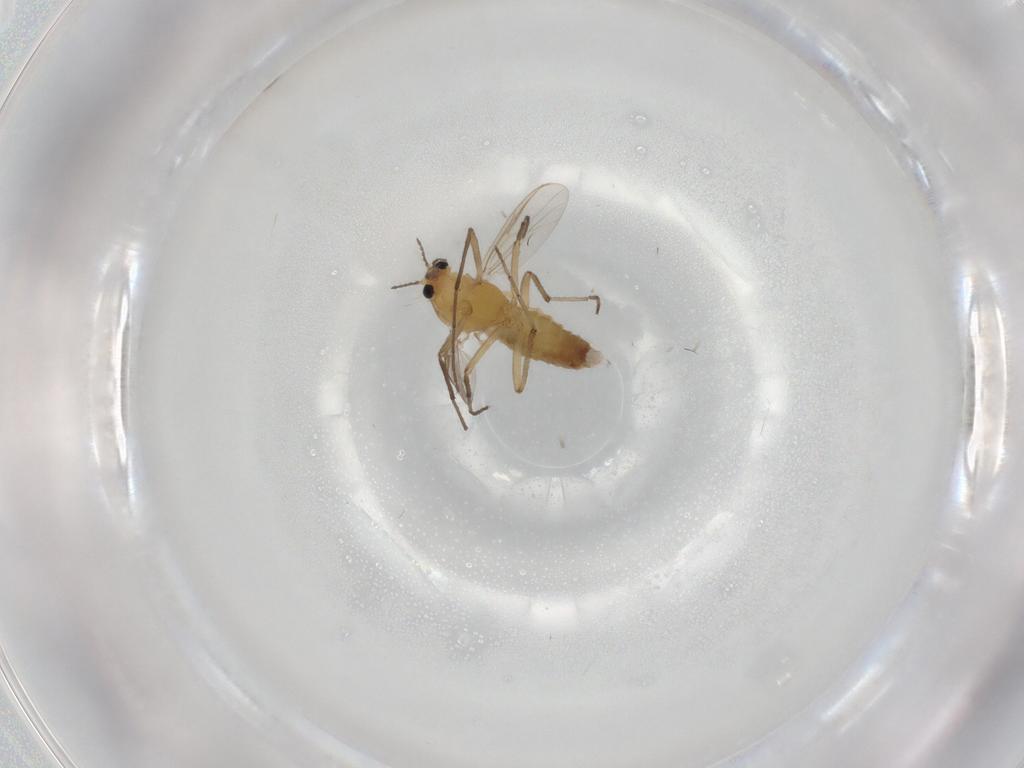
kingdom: Animalia
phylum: Arthropoda
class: Insecta
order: Diptera
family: Cecidomyiidae
